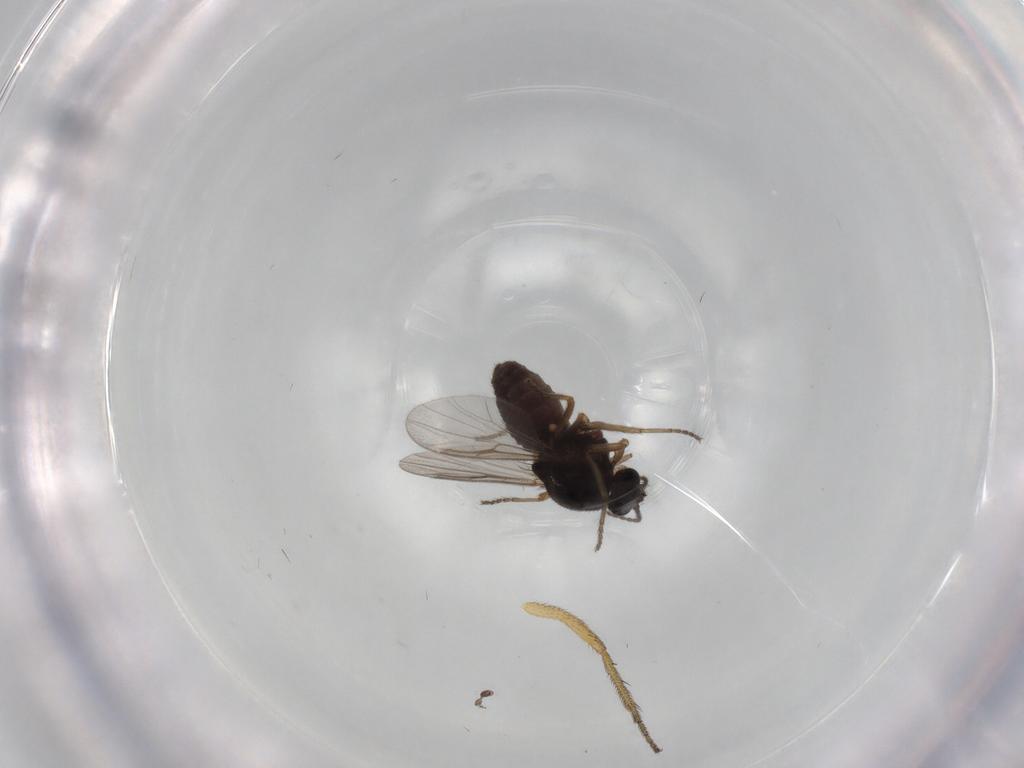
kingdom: Animalia
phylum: Arthropoda
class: Insecta
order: Diptera
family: Ceratopogonidae
